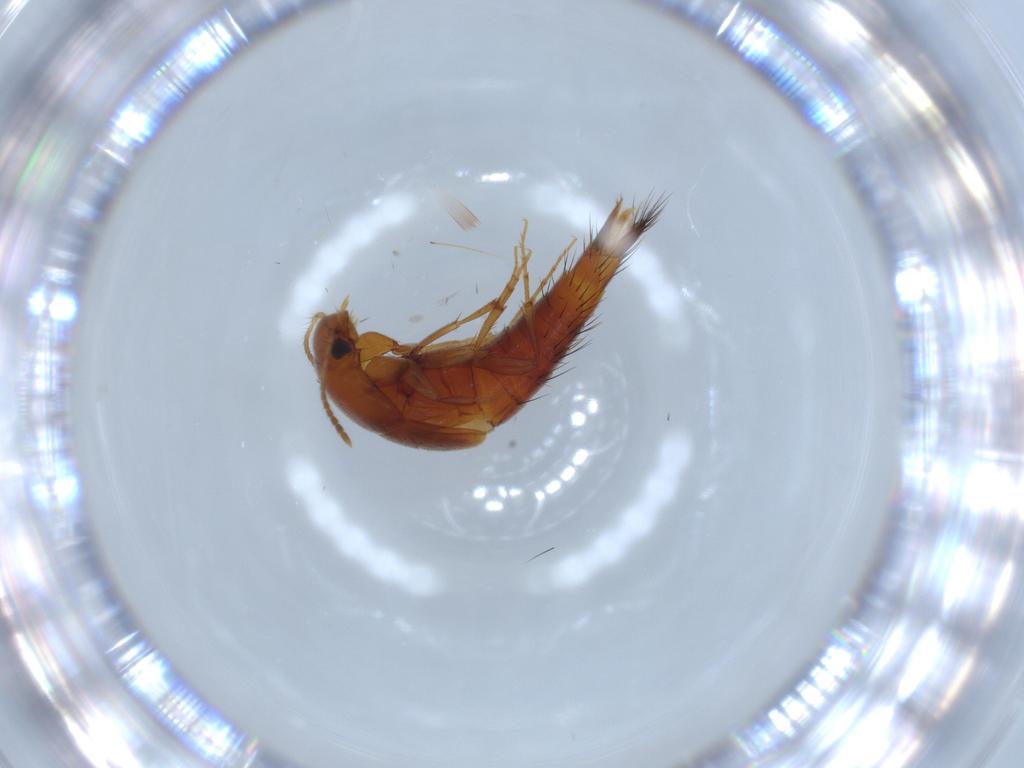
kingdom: Animalia
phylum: Arthropoda
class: Insecta
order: Coleoptera
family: Staphylinidae
